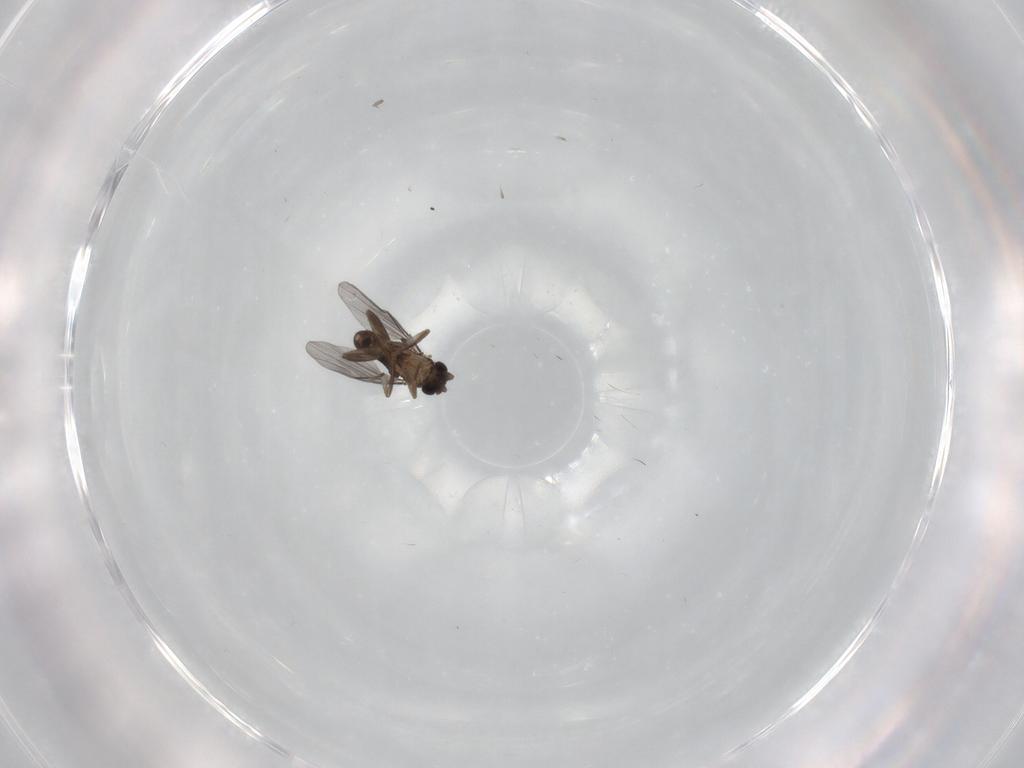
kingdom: Animalia
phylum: Arthropoda
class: Insecta
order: Diptera
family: Cecidomyiidae
